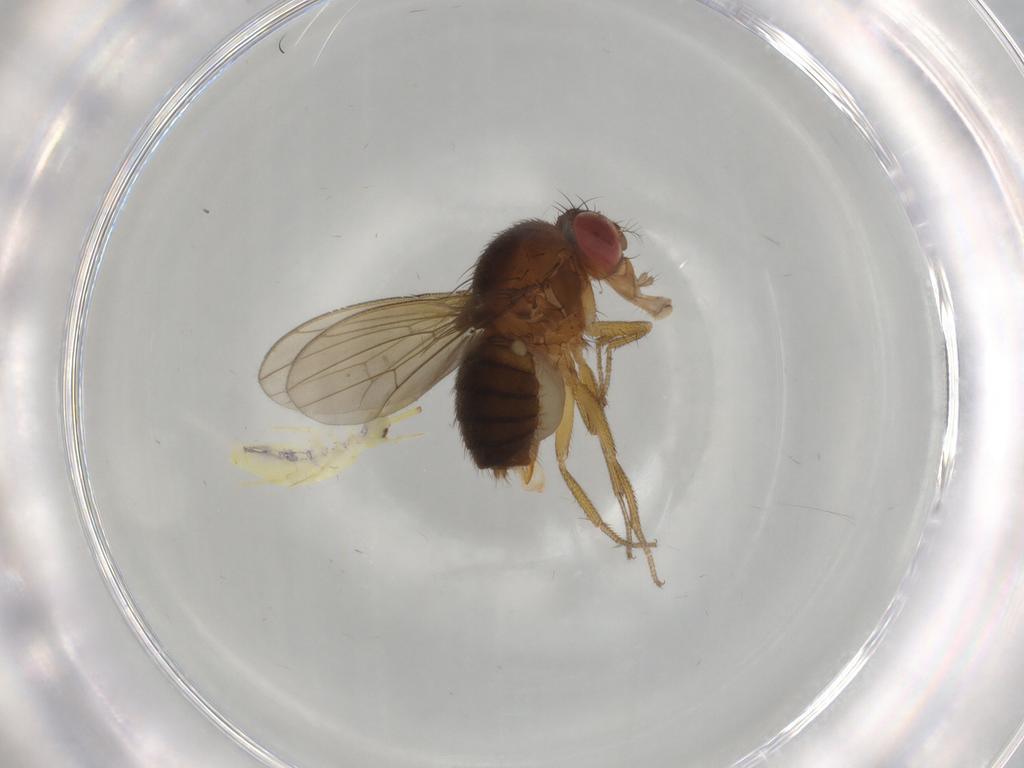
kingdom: Animalia
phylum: Arthropoda
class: Insecta
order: Diptera
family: Drosophilidae
